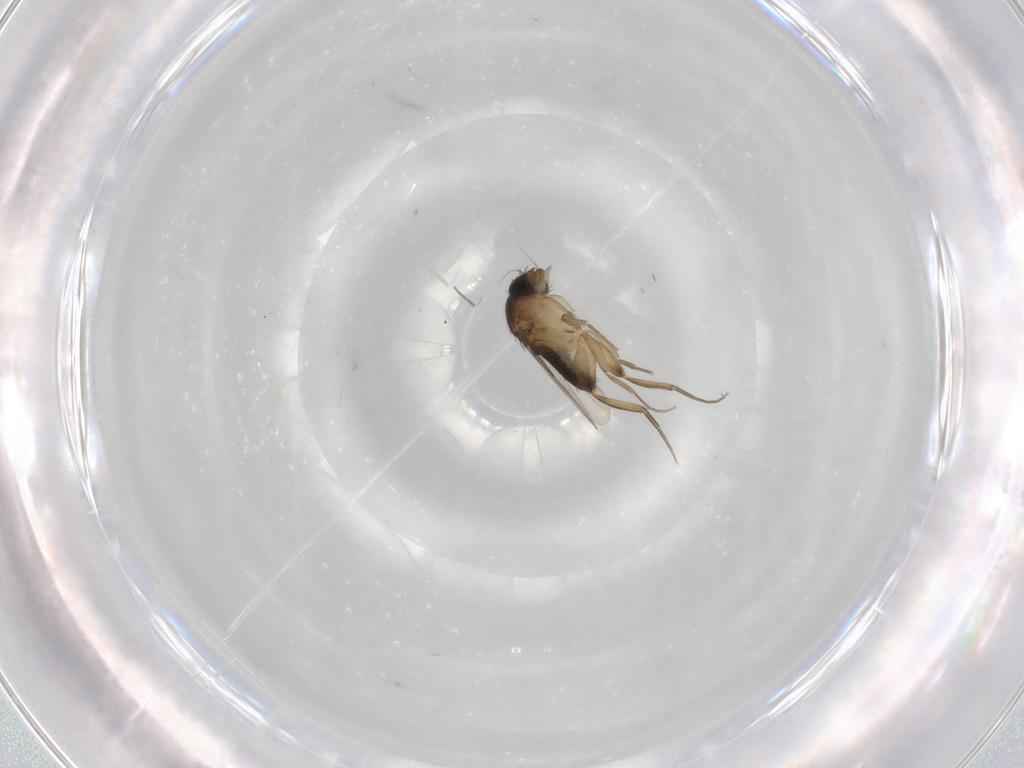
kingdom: Animalia
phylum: Arthropoda
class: Insecta
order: Diptera
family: Phoridae
